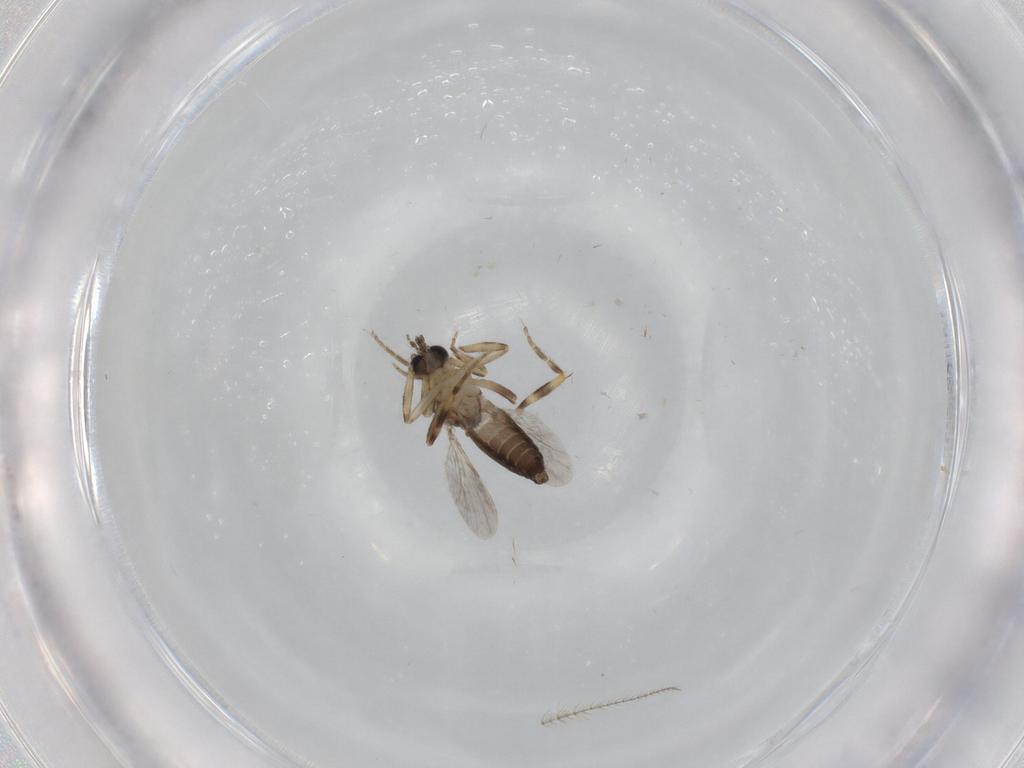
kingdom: Animalia
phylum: Arthropoda
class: Insecta
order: Diptera
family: Ceratopogonidae
